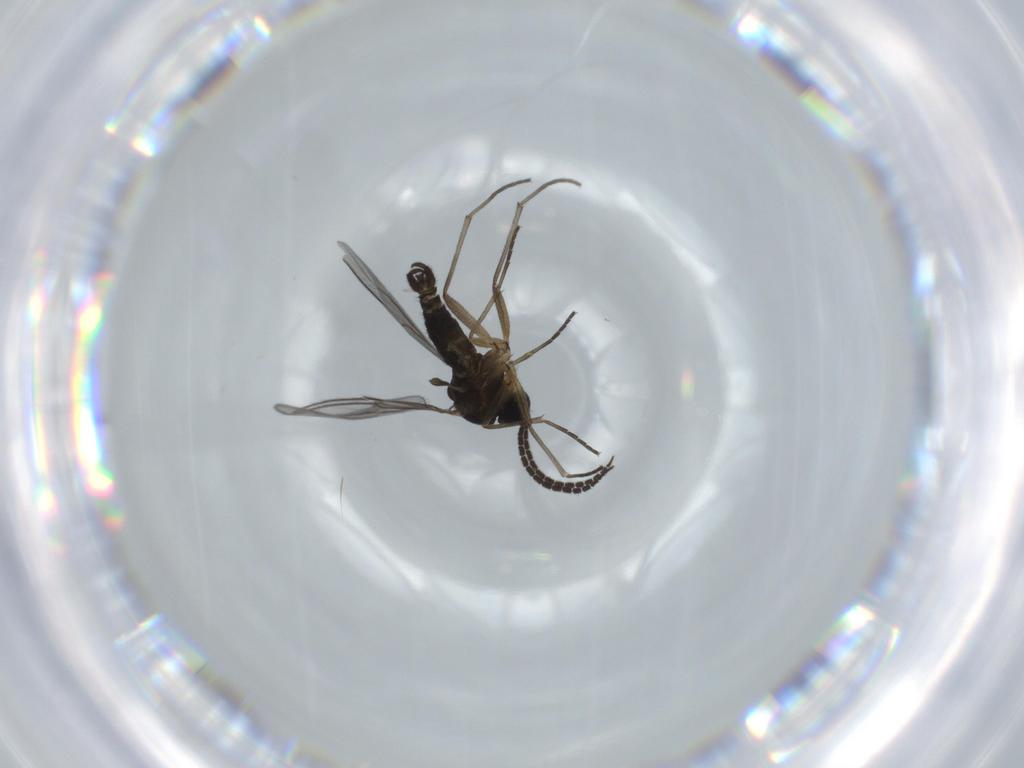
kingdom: Animalia
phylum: Arthropoda
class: Insecta
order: Diptera
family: Sciaridae
